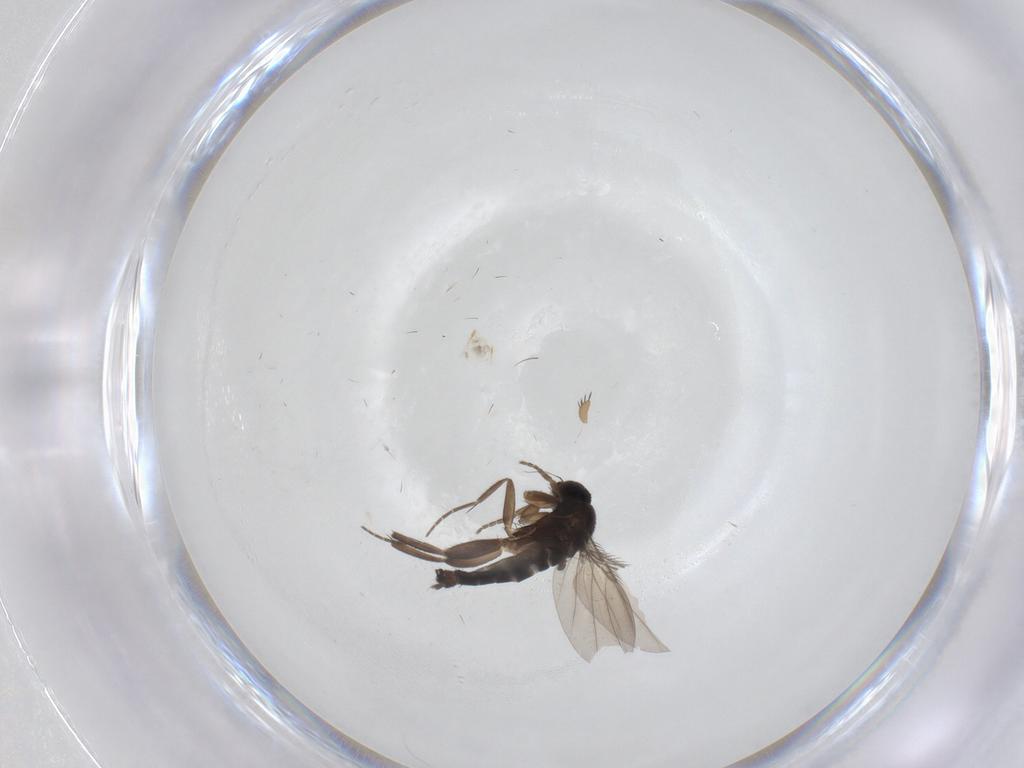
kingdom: Animalia
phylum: Arthropoda
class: Insecta
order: Diptera
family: Phoridae
